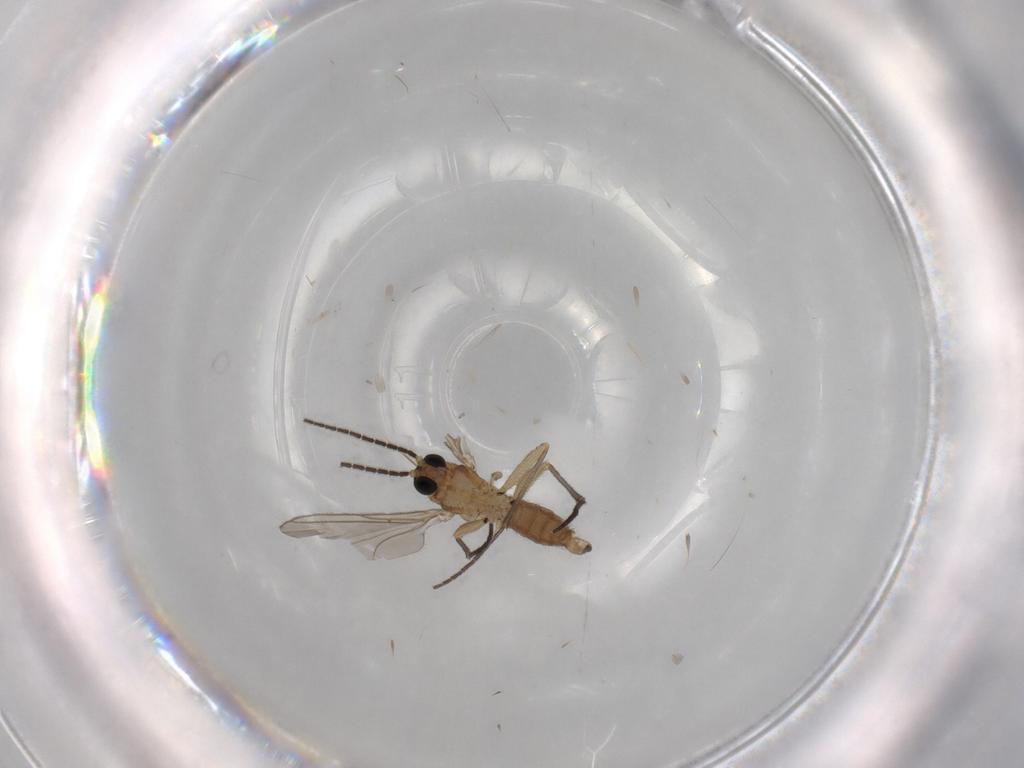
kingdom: Animalia
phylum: Arthropoda
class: Insecta
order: Diptera
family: Sciaridae
